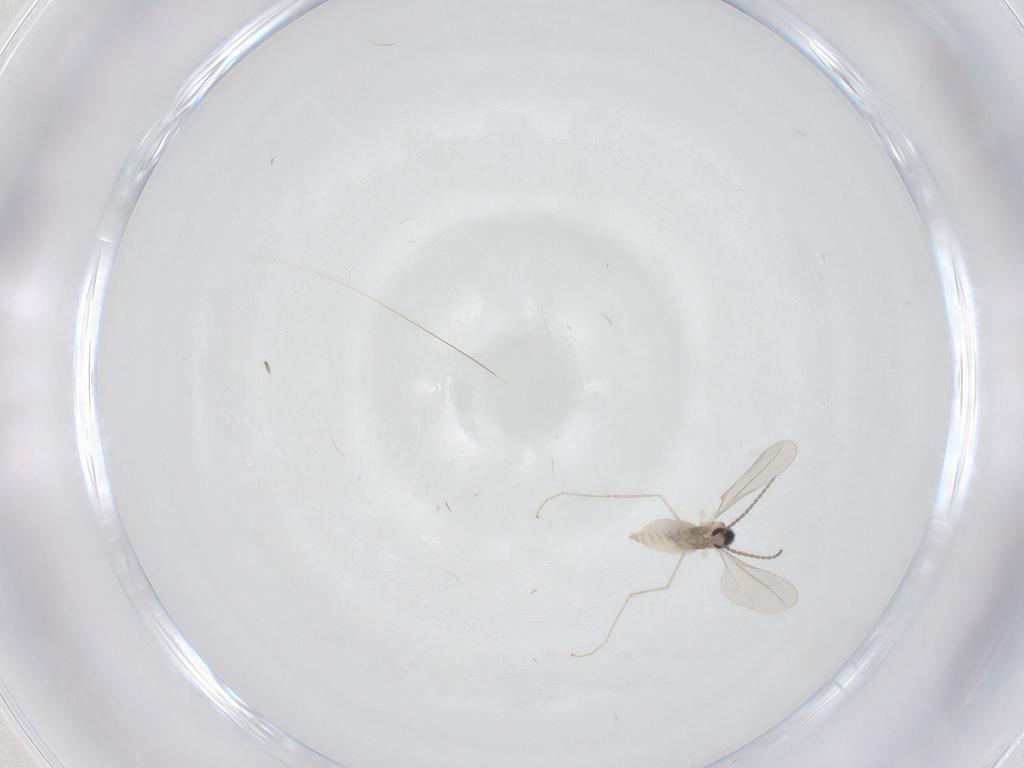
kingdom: Animalia
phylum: Arthropoda
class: Insecta
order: Diptera
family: Cecidomyiidae
